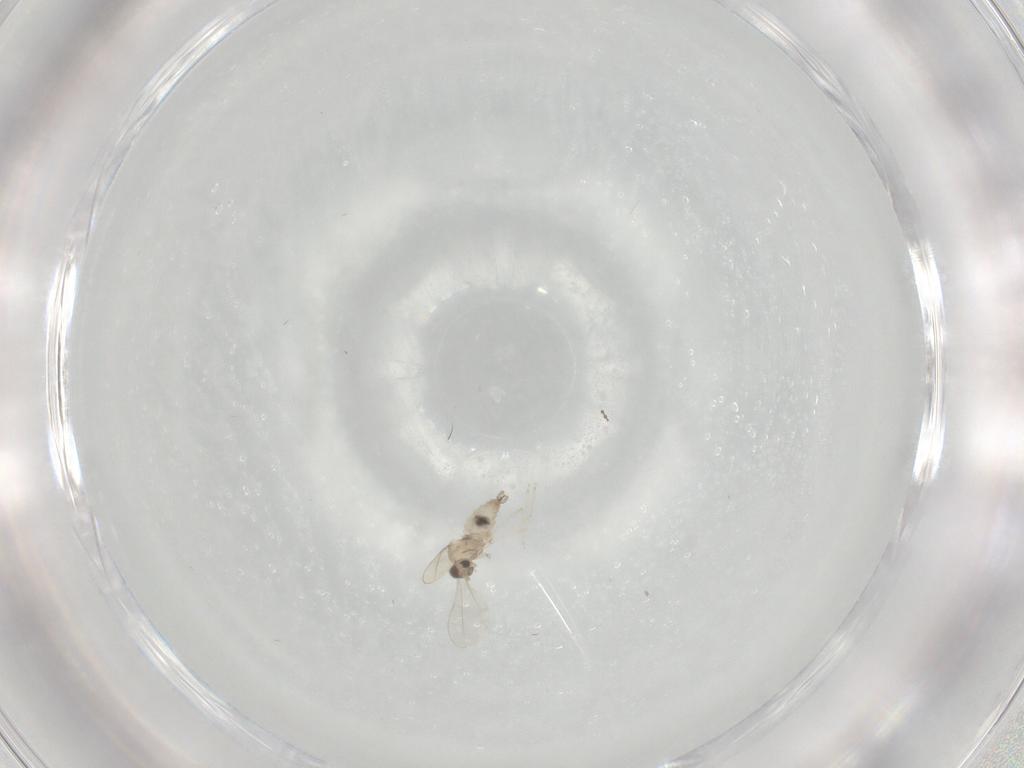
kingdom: Animalia
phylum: Arthropoda
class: Insecta
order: Diptera
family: Cecidomyiidae
